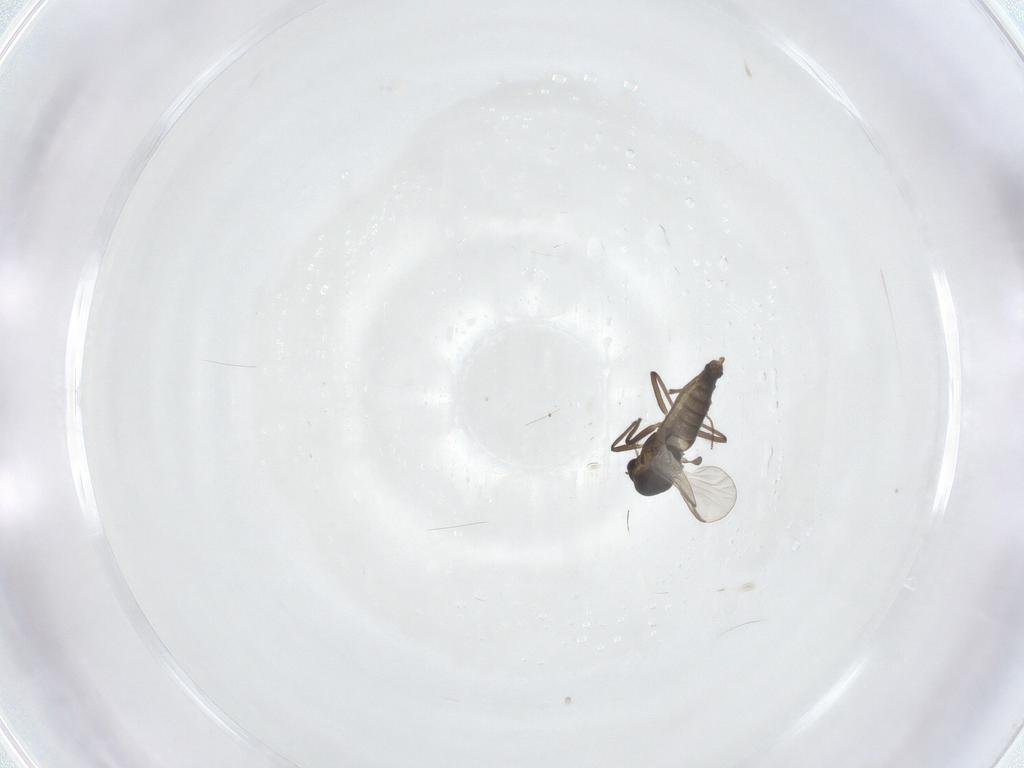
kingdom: Animalia
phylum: Arthropoda
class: Insecta
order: Diptera
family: Chironomidae
